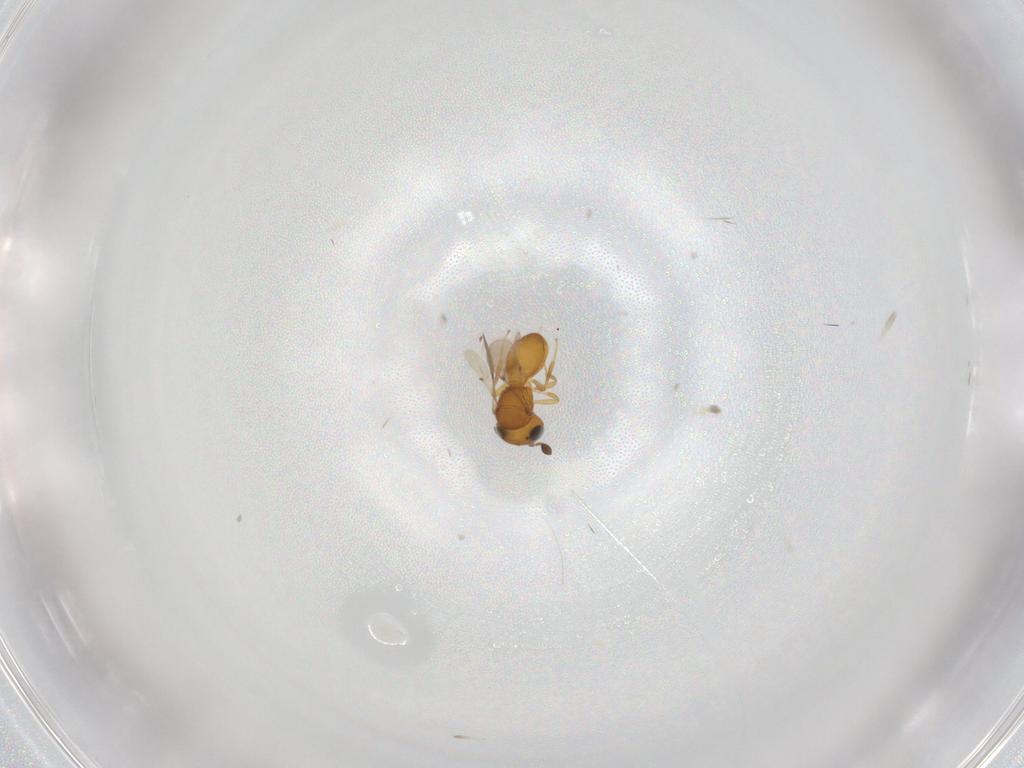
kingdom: Animalia
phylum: Arthropoda
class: Insecta
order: Hymenoptera
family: Scelionidae
